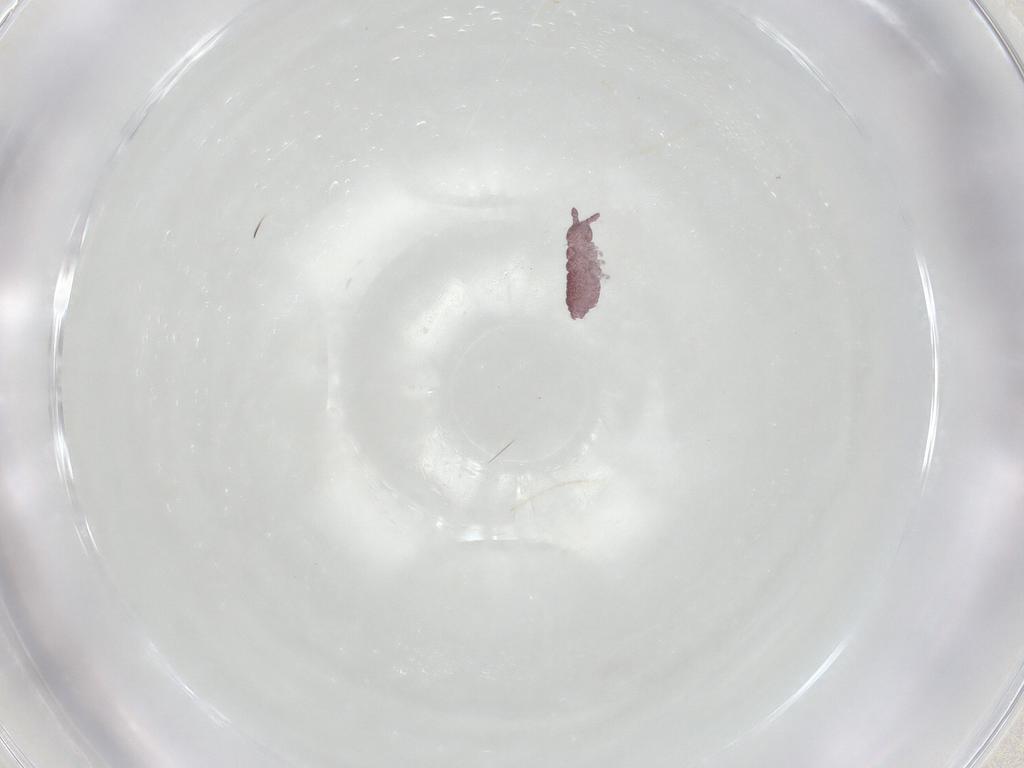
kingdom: Animalia
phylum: Arthropoda
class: Collembola
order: Poduromorpha
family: Hypogastruridae
